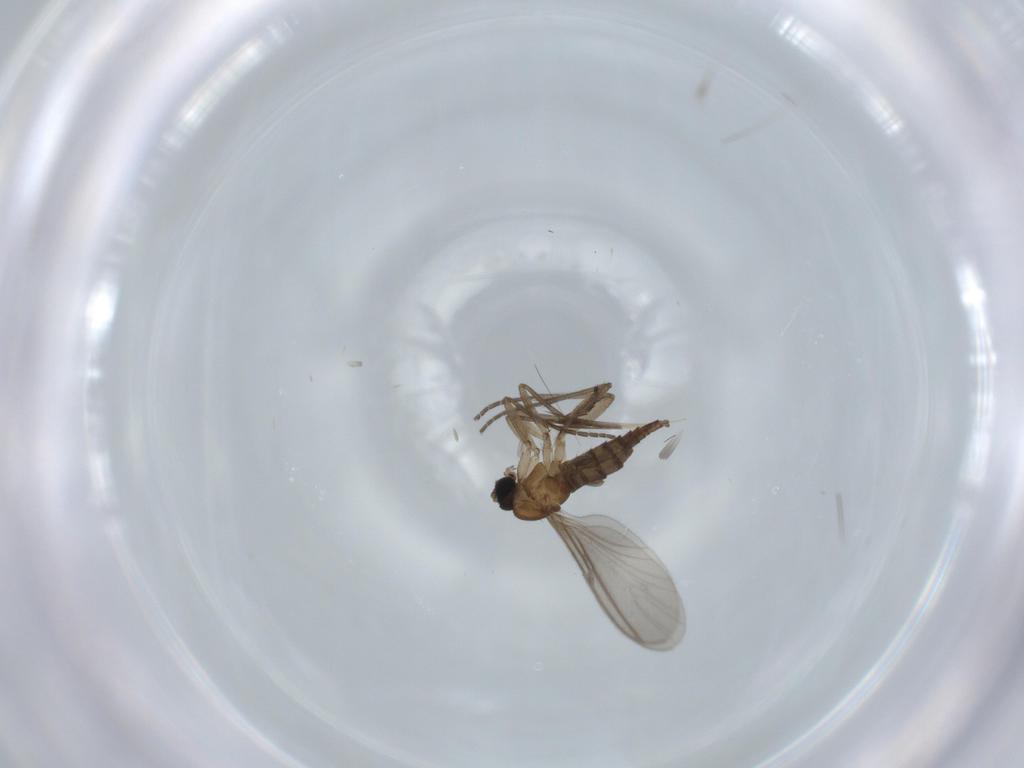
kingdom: Animalia
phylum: Arthropoda
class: Insecta
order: Diptera
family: Sciaridae
